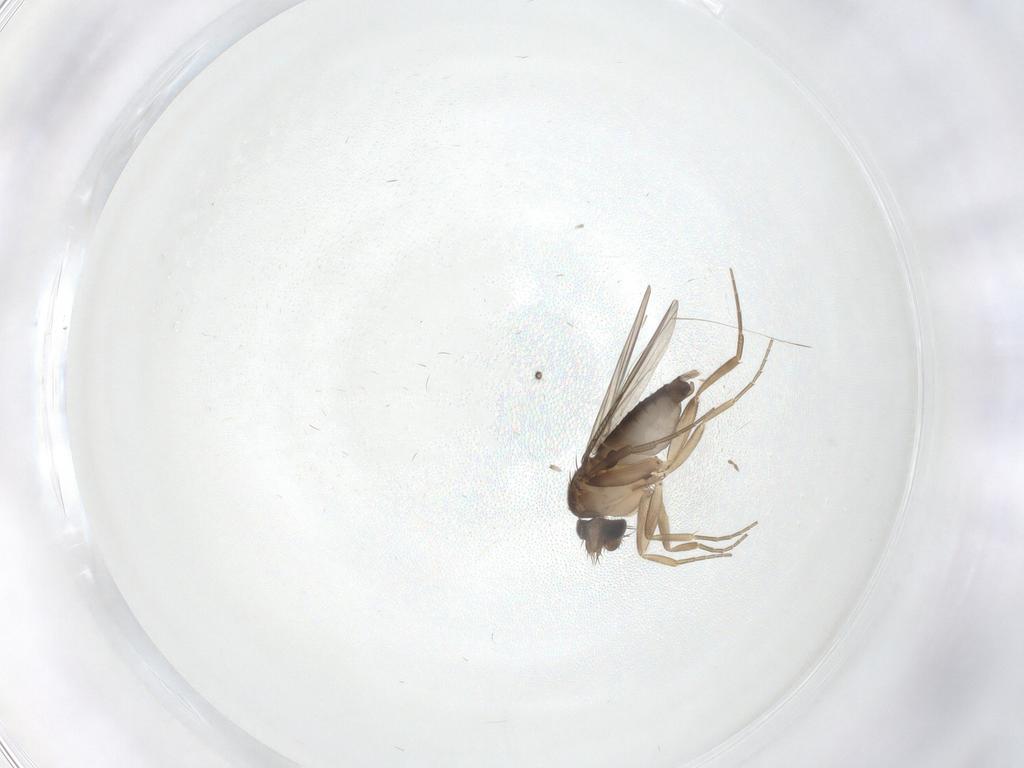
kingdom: Animalia
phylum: Arthropoda
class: Insecta
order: Diptera
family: Phoridae
